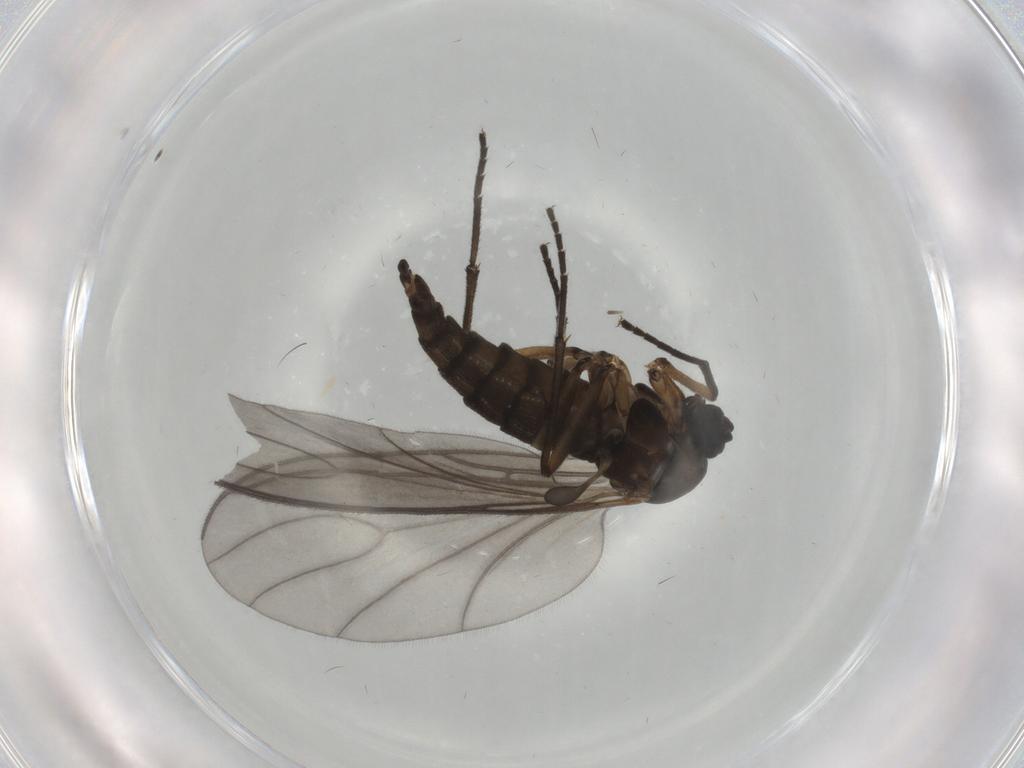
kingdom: Animalia
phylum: Arthropoda
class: Insecta
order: Diptera
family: Sciaridae
